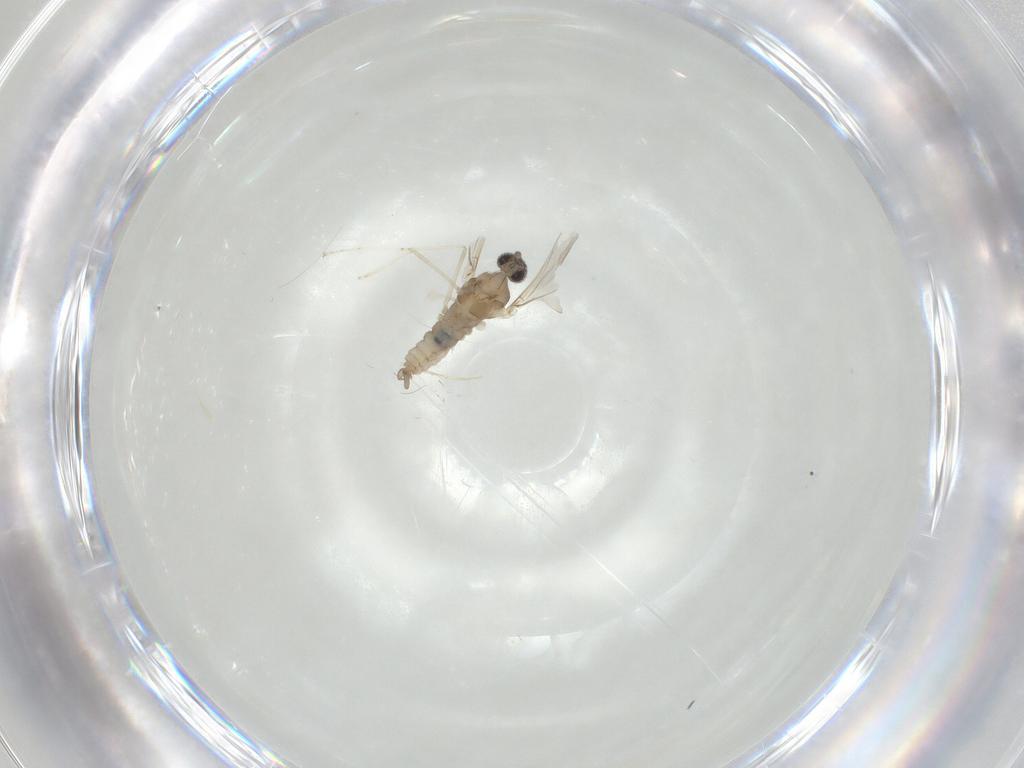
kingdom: Animalia
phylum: Arthropoda
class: Insecta
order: Diptera
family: Cecidomyiidae
